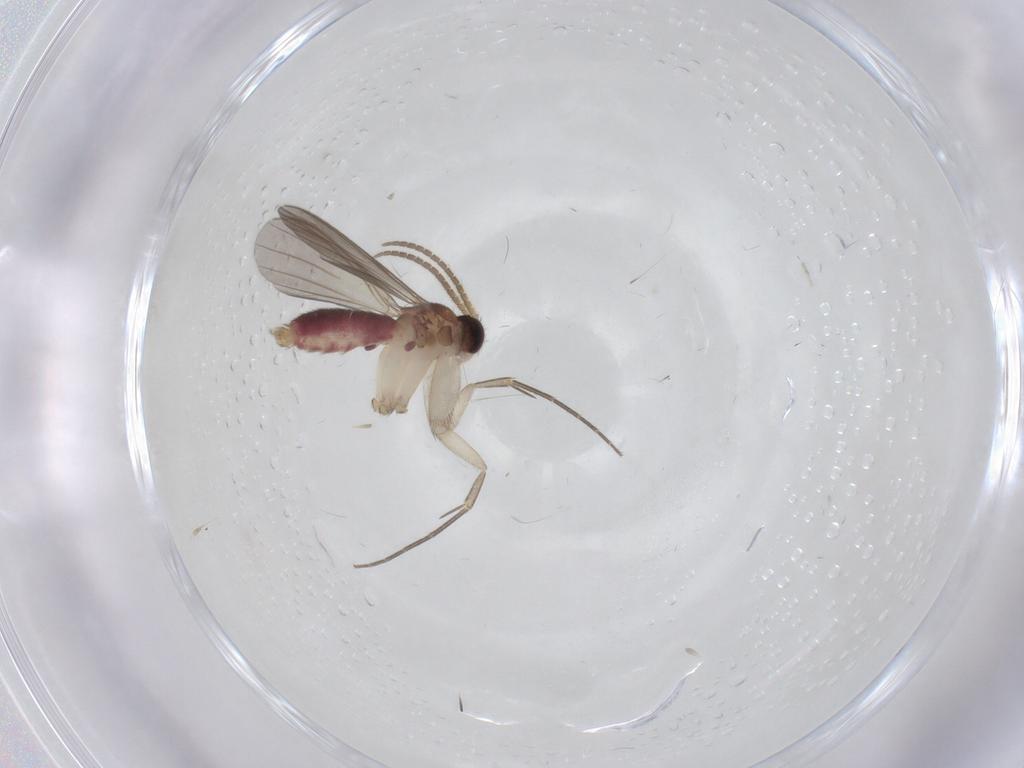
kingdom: Animalia
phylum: Arthropoda
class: Insecta
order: Diptera
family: Mycetophilidae
